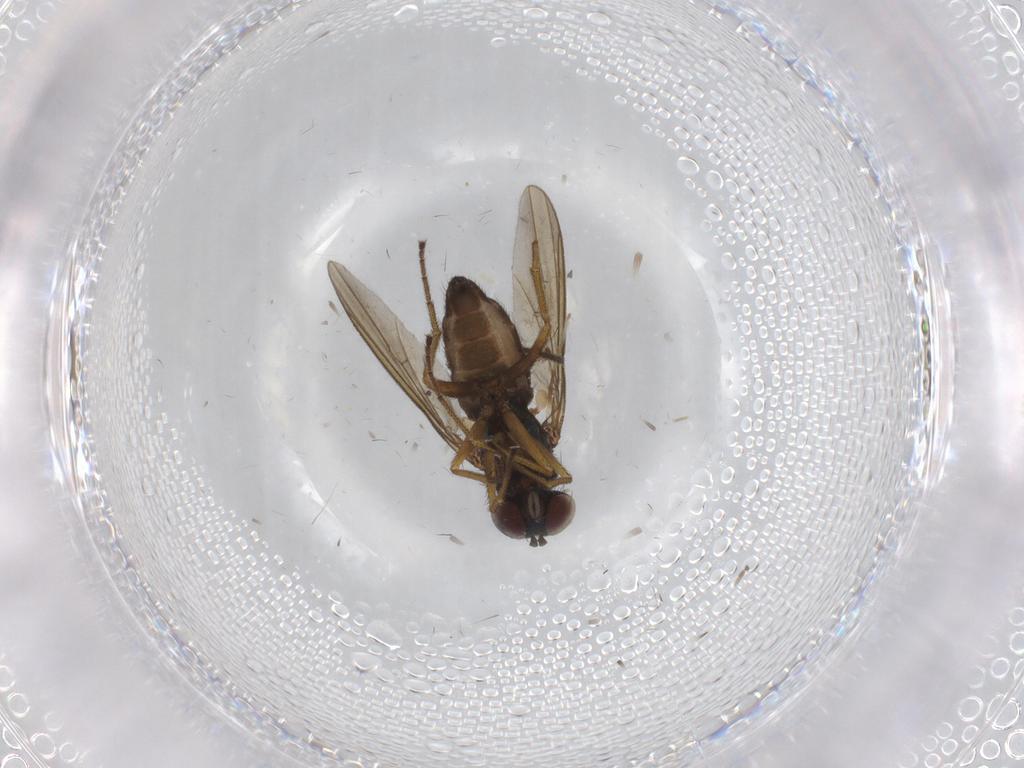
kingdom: Animalia
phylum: Arthropoda
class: Insecta
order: Diptera
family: Dolichopodidae
